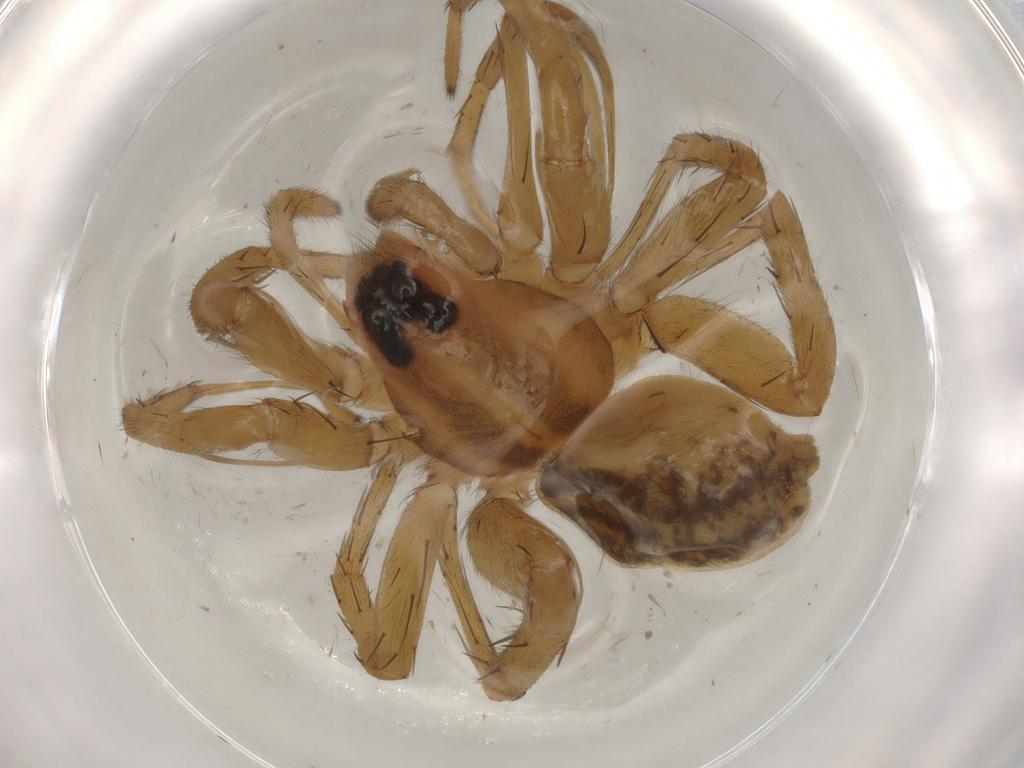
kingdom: Animalia
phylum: Arthropoda
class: Arachnida
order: Araneae
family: Lycosidae
